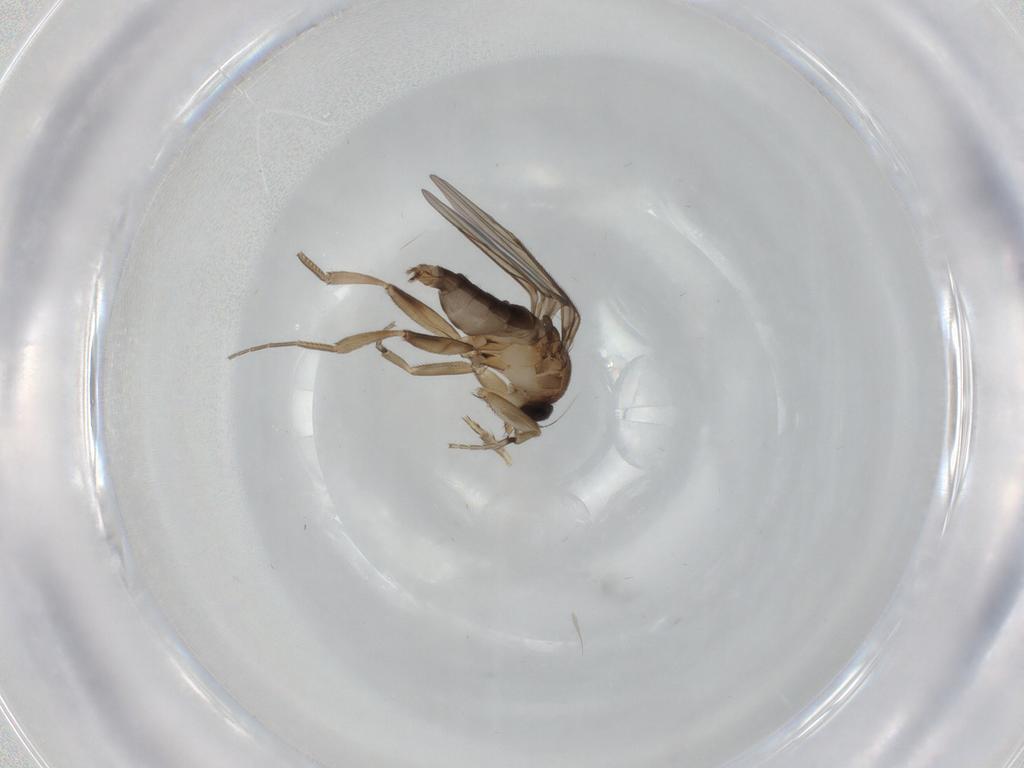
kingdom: Animalia
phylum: Arthropoda
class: Insecta
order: Diptera
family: Phoridae
